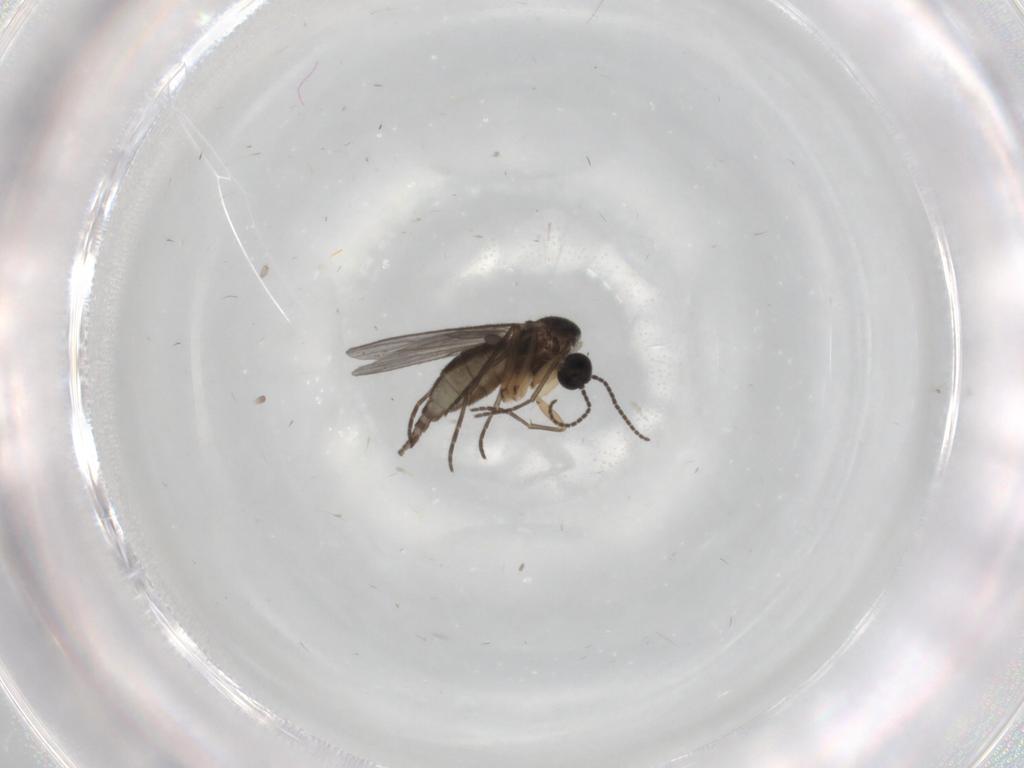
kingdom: Animalia
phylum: Arthropoda
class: Insecta
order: Diptera
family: Sciaridae
